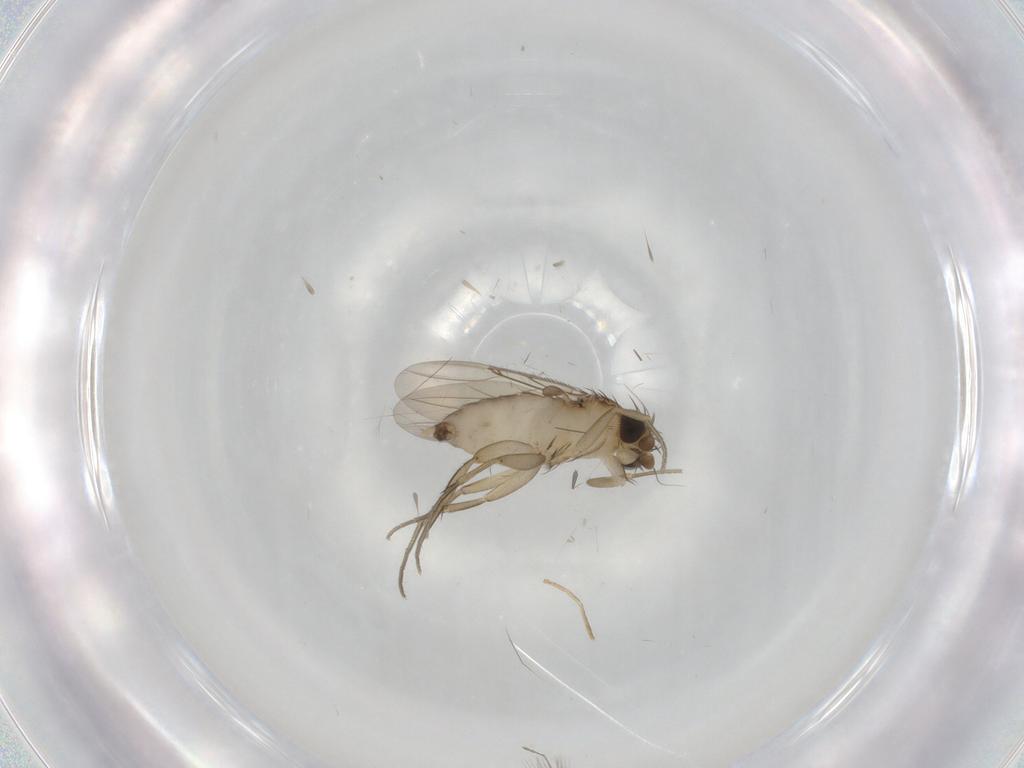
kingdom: Animalia
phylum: Arthropoda
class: Insecta
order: Diptera
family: Phoridae
